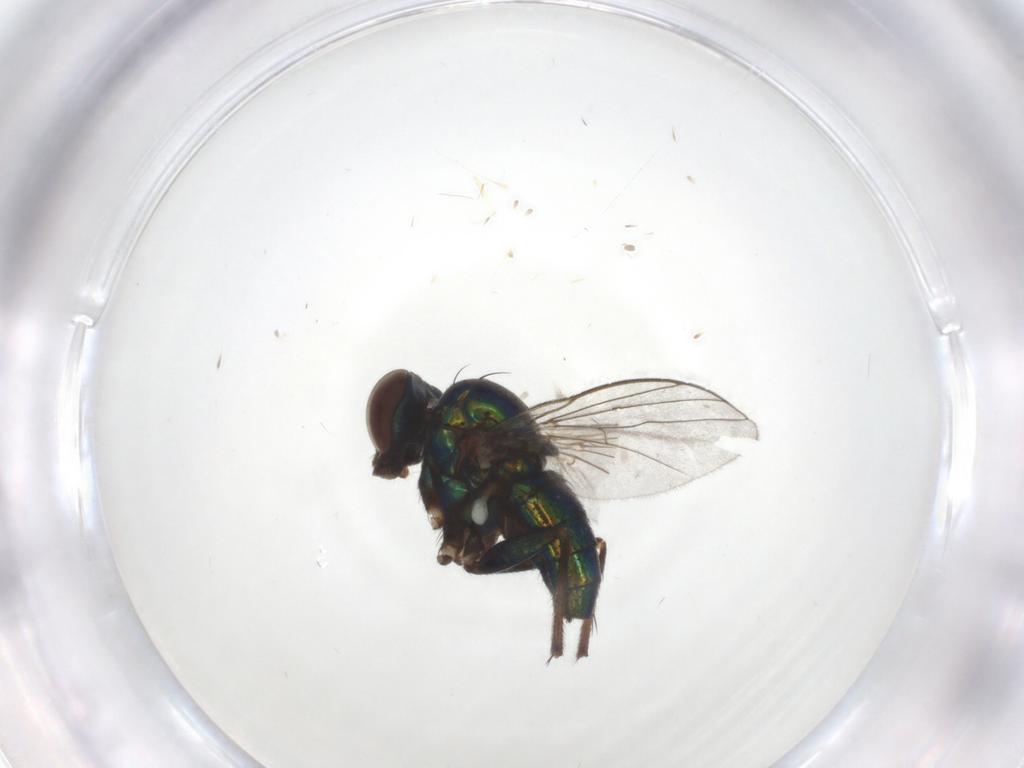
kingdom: Animalia
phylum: Arthropoda
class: Insecta
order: Diptera
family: Dolichopodidae
